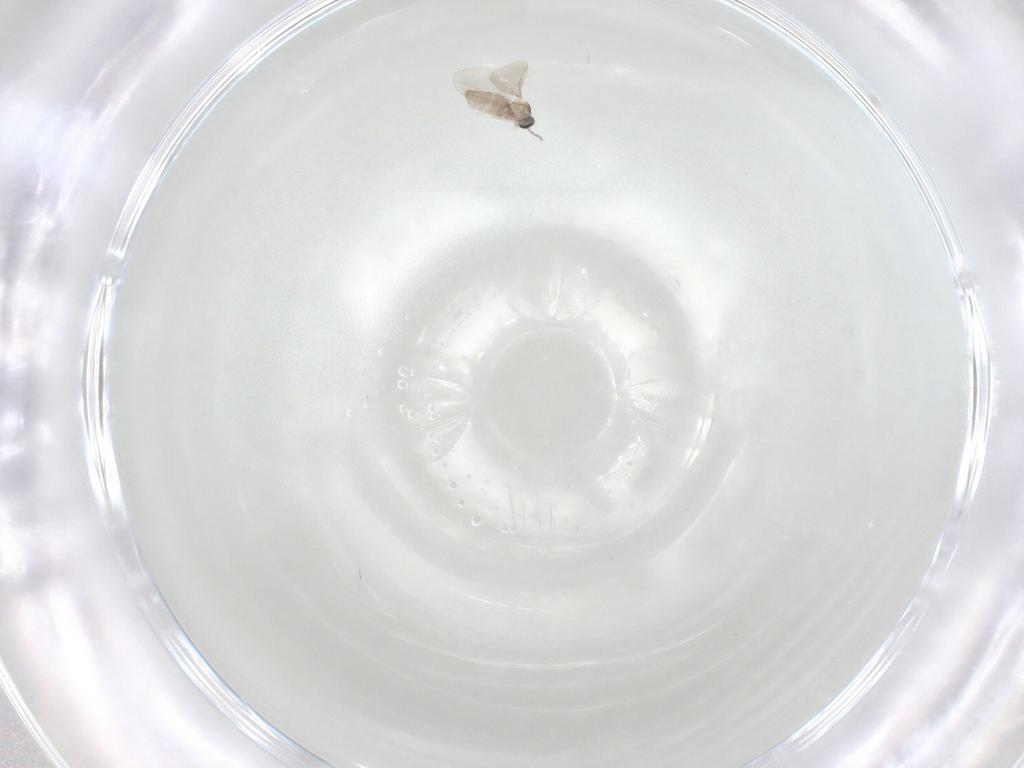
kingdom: Animalia
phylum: Arthropoda
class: Insecta
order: Diptera
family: Cecidomyiidae
